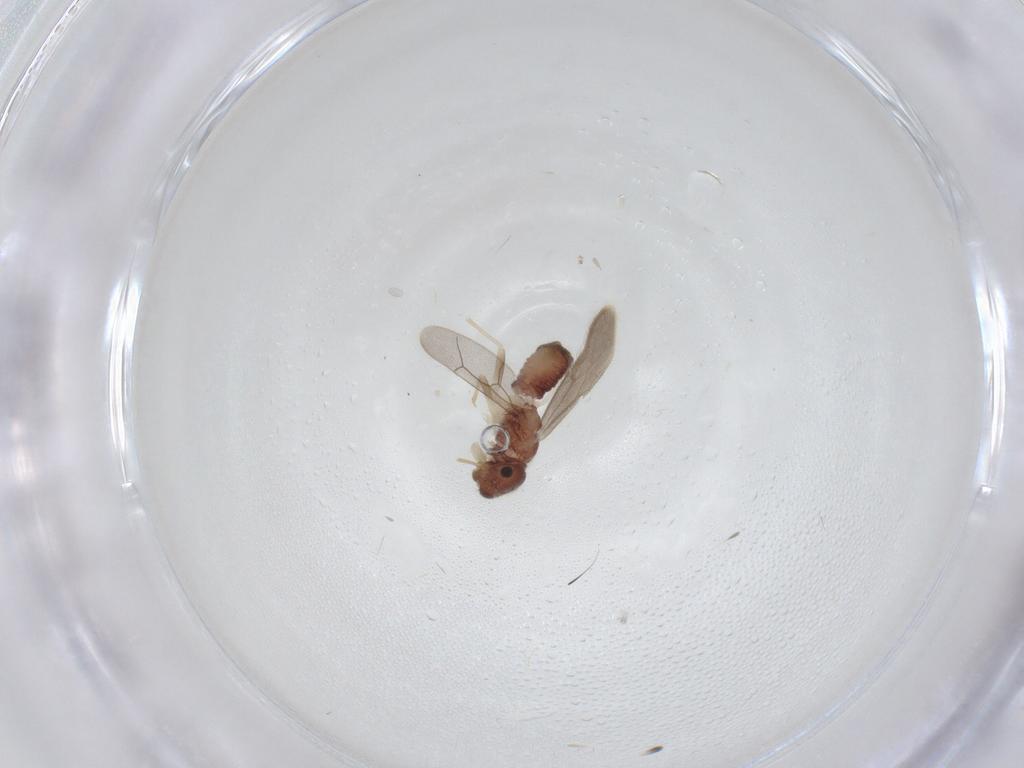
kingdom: Animalia
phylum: Arthropoda
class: Insecta
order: Psocodea
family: Archipsocidae
